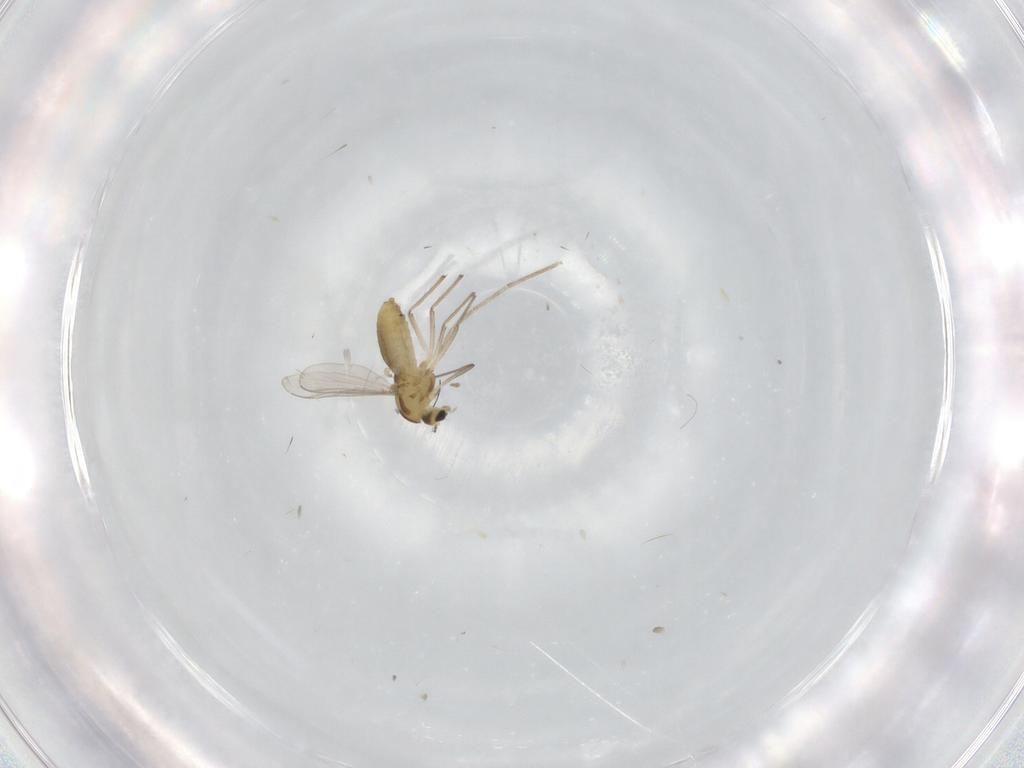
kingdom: Animalia
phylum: Arthropoda
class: Insecta
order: Diptera
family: Chironomidae
